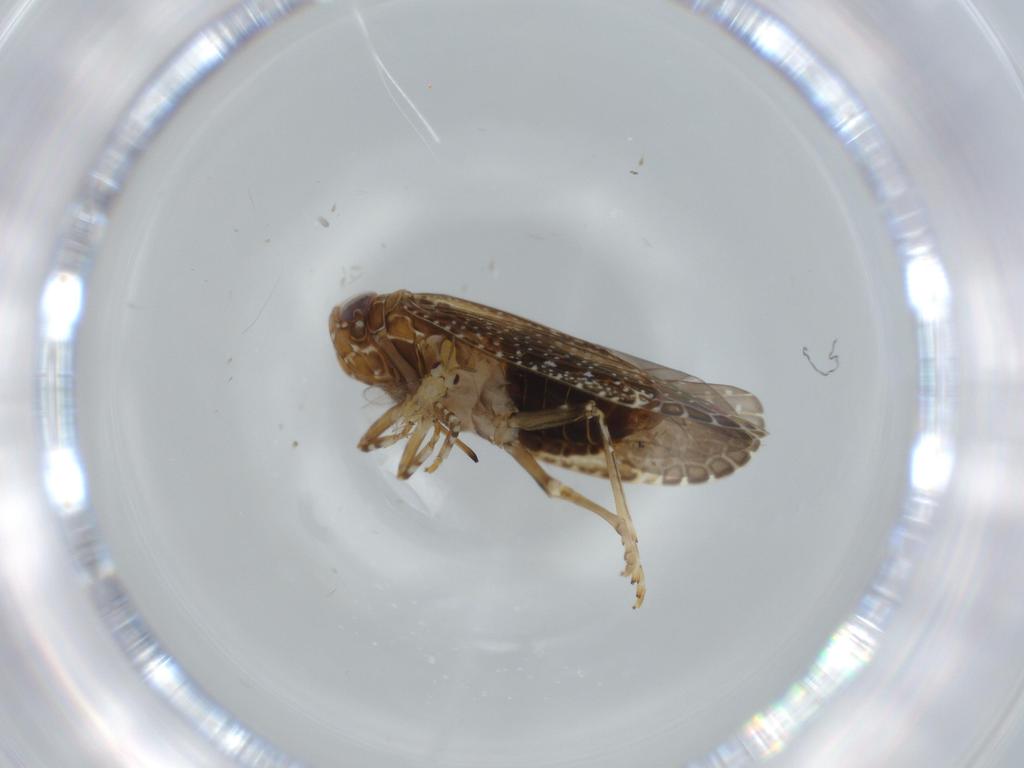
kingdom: Animalia
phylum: Arthropoda
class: Insecta
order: Hemiptera
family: Achilidae
